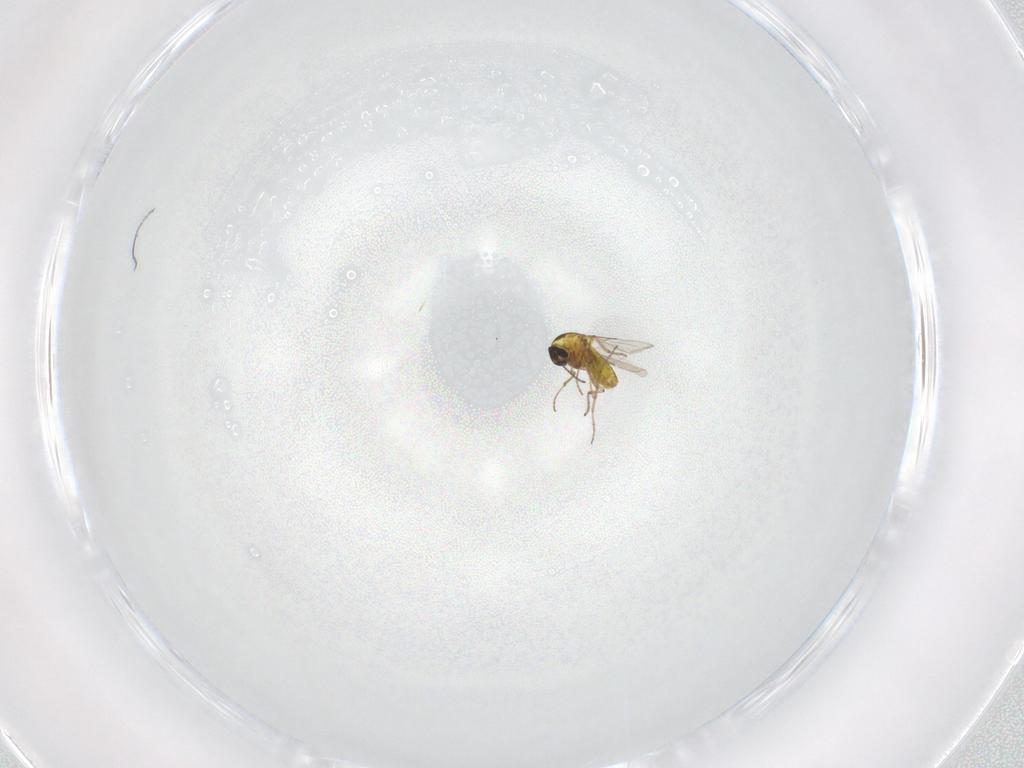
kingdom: Animalia
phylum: Arthropoda
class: Insecta
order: Diptera
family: Ceratopogonidae
